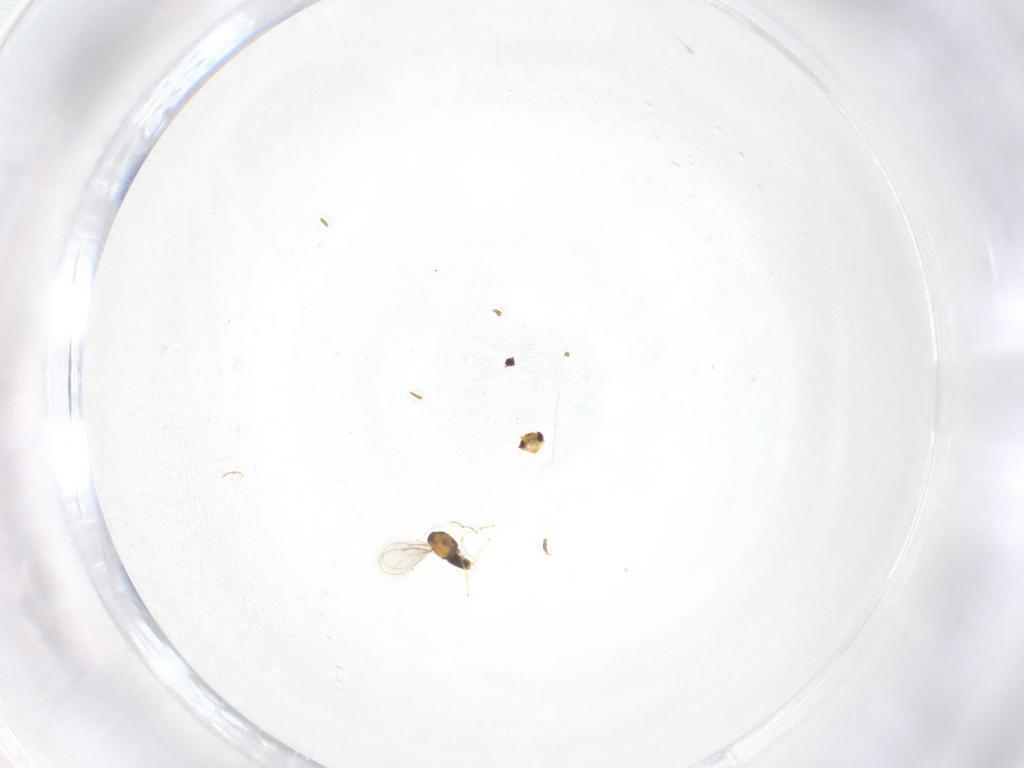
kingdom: Animalia
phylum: Arthropoda
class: Insecta
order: Hymenoptera
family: Aphelinidae
